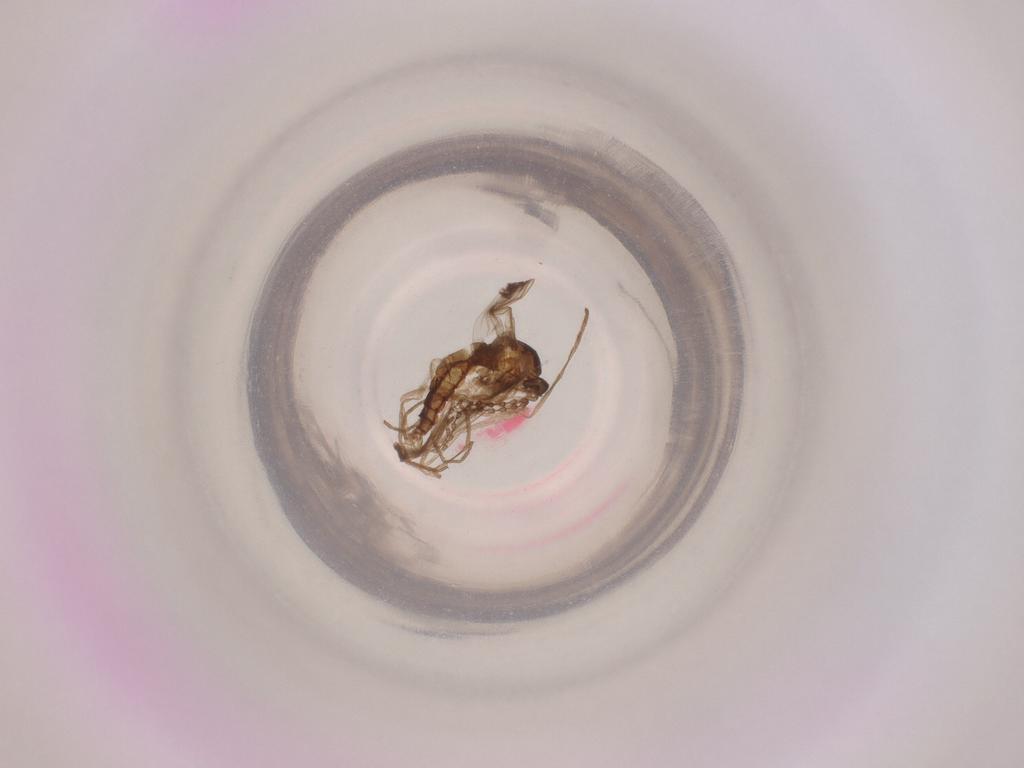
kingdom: Animalia
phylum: Arthropoda
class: Insecta
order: Diptera
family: Cecidomyiidae
